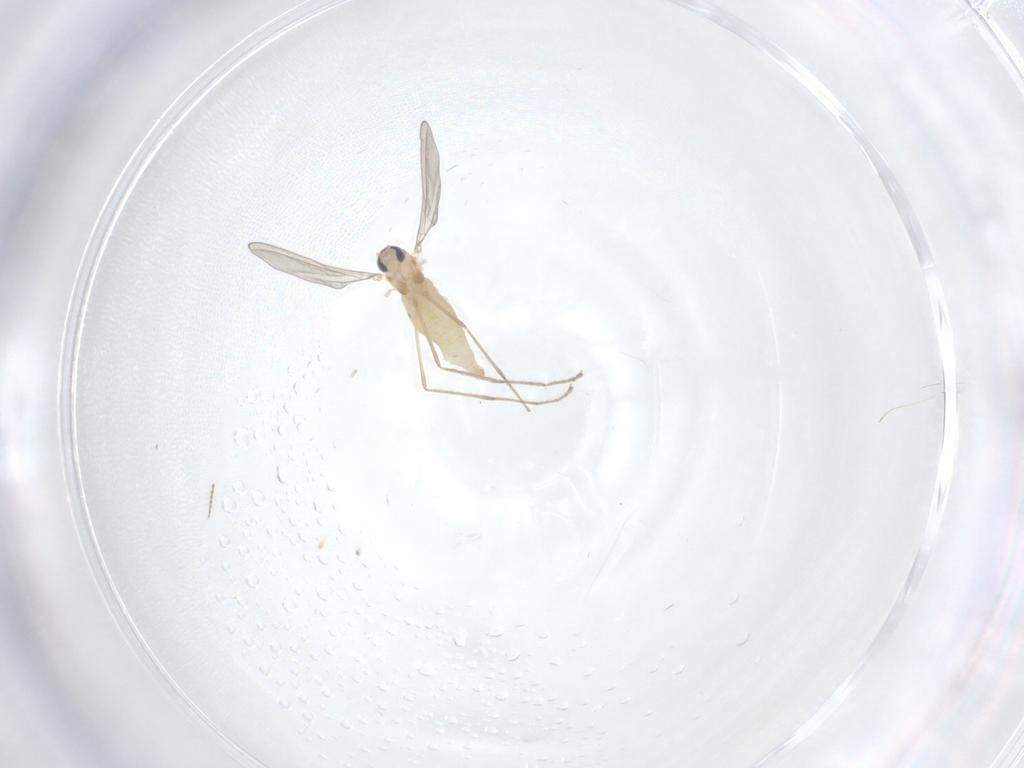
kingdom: Animalia
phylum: Arthropoda
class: Insecta
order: Diptera
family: Cecidomyiidae
